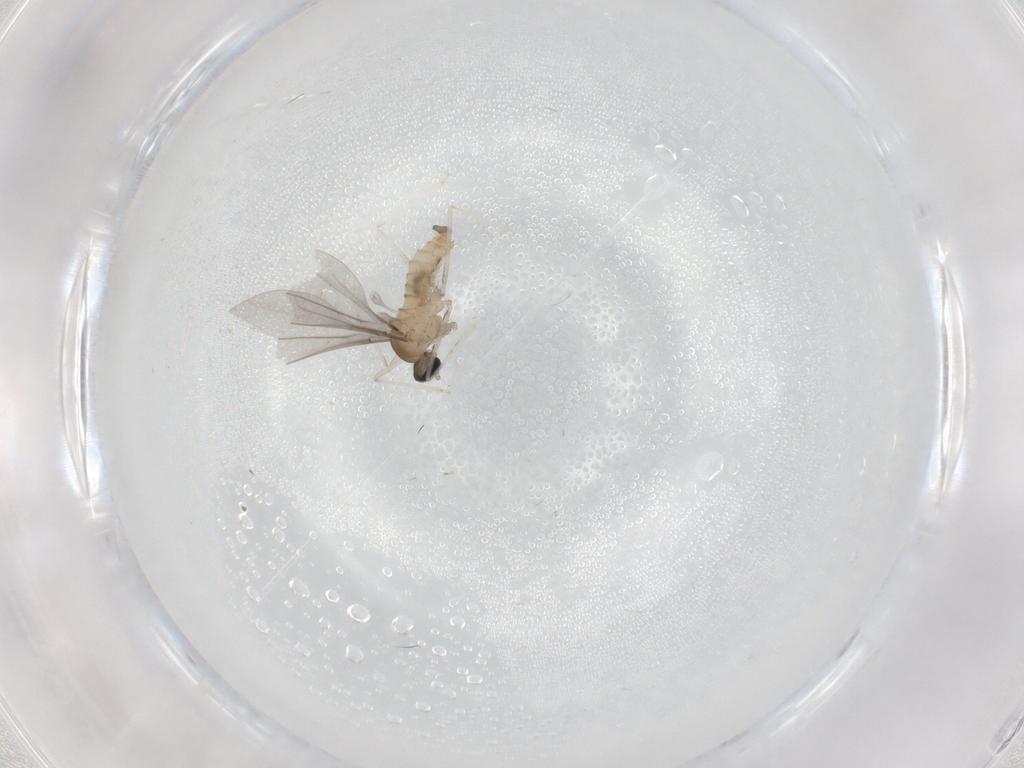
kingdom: Animalia
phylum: Arthropoda
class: Insecta
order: Diptera
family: Cecidomyiidae
